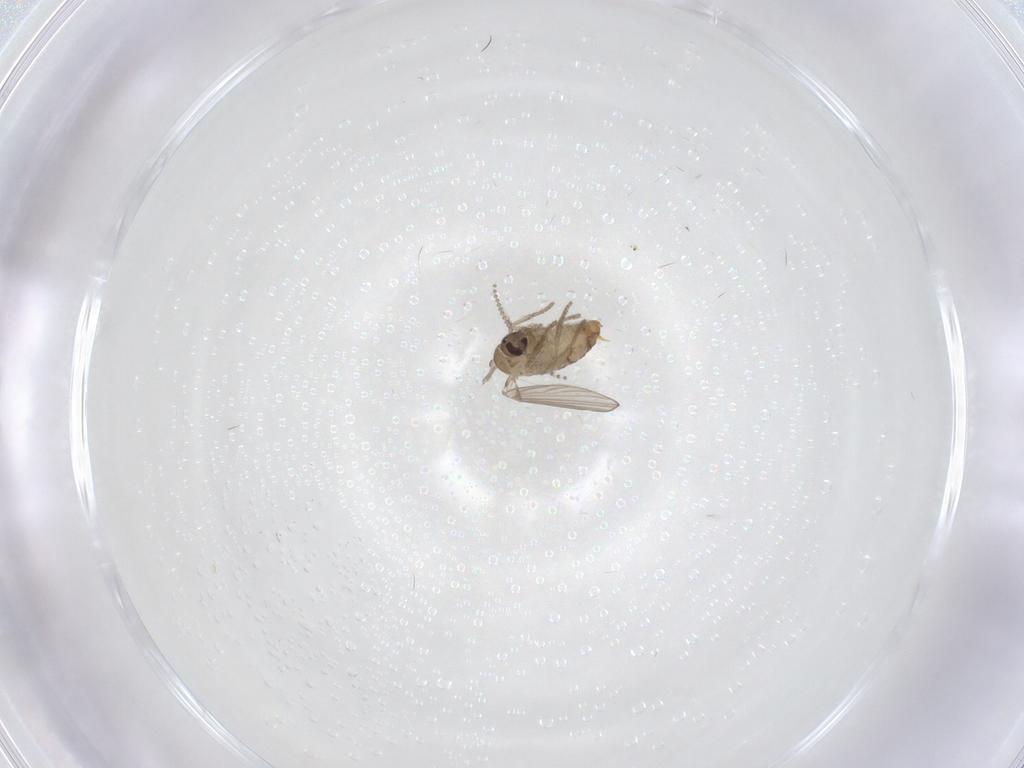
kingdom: Animalia
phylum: Arthropoda
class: Insecta
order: Diptera
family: Psychodidae
